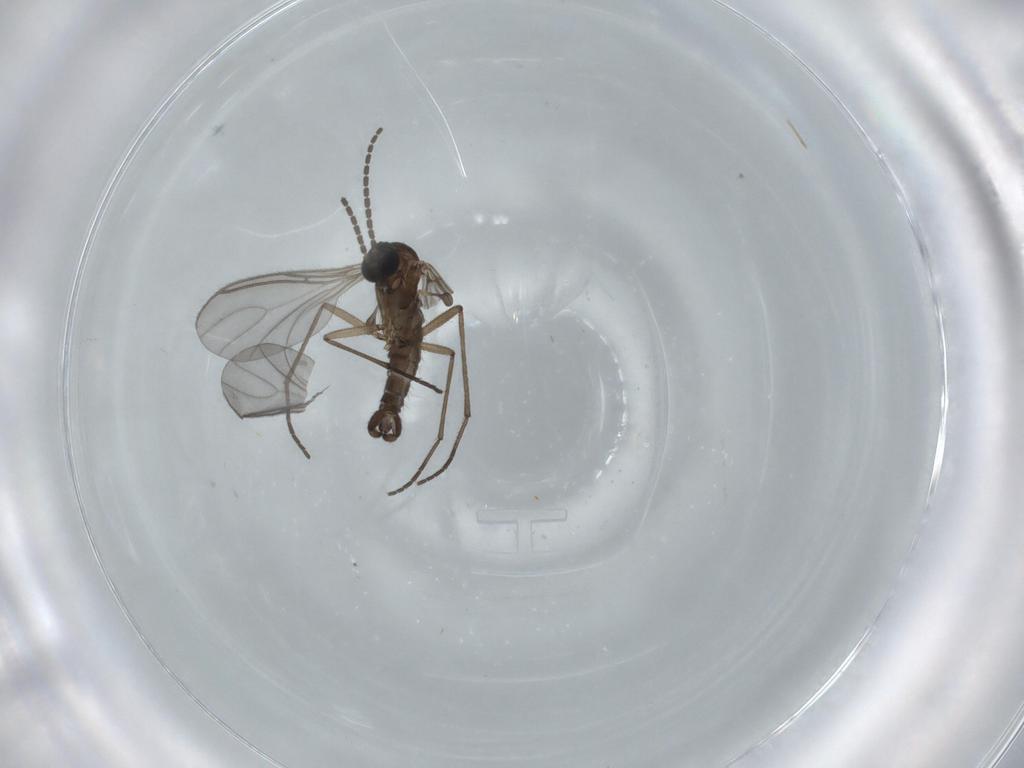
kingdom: Animalia
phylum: Arthropoda
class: Insecta
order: Diptera
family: Sciaridae
